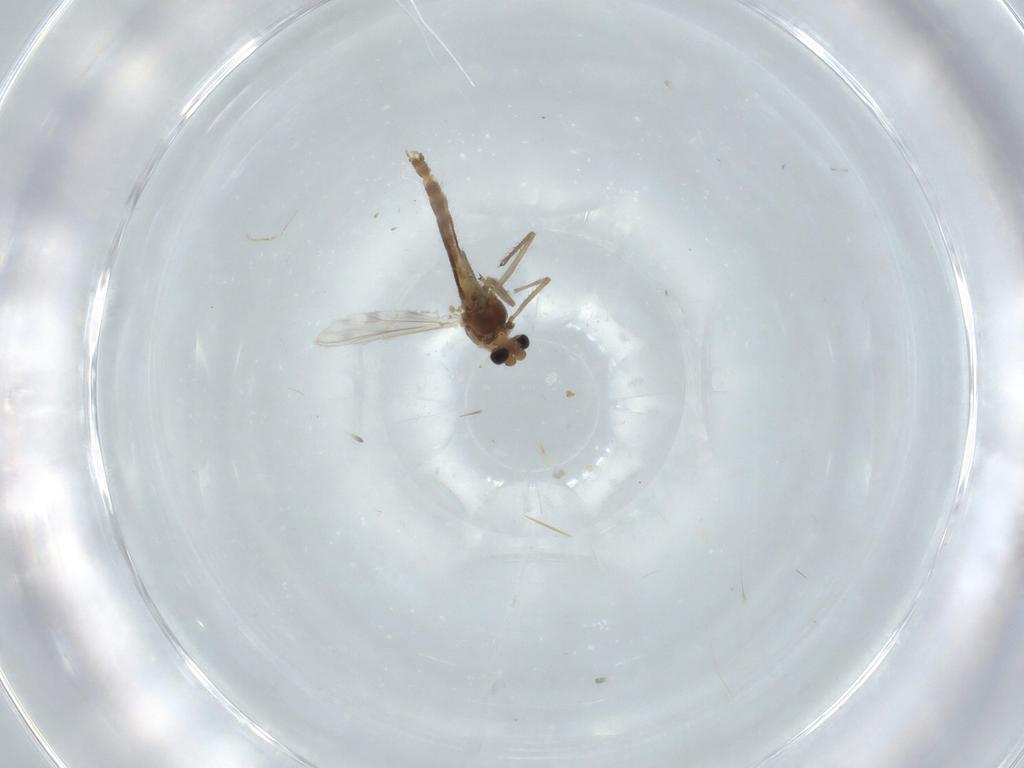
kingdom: Animalia
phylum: Arthropoda
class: Insecta
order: Diptera
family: Chironomidae
